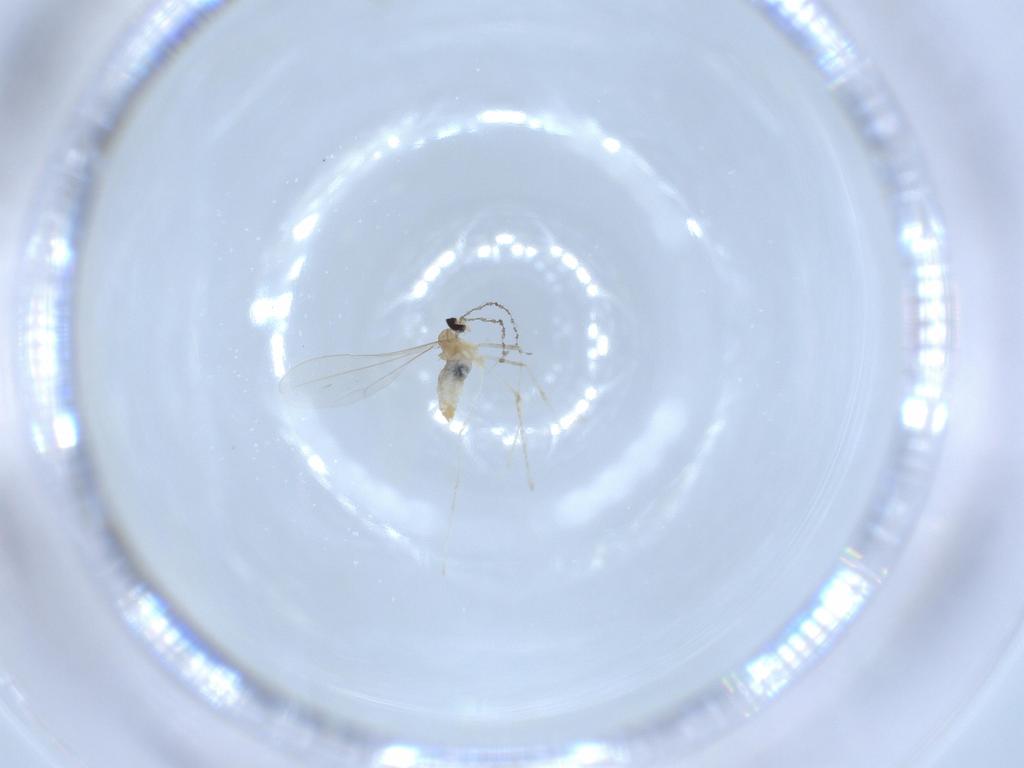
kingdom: Animalia
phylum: Arthropoda
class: Insecta
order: Diptera
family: Cecidomyiidae
